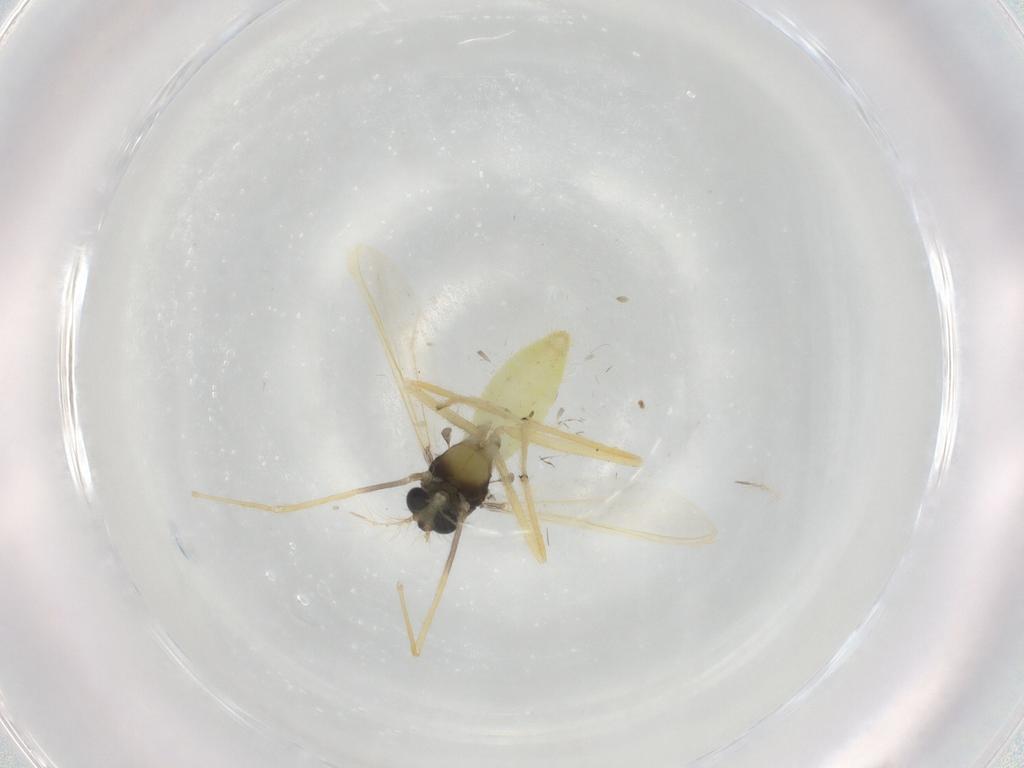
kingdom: Animalia
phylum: Arthropoda
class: Insecta
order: Diptera
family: Chironomidae
